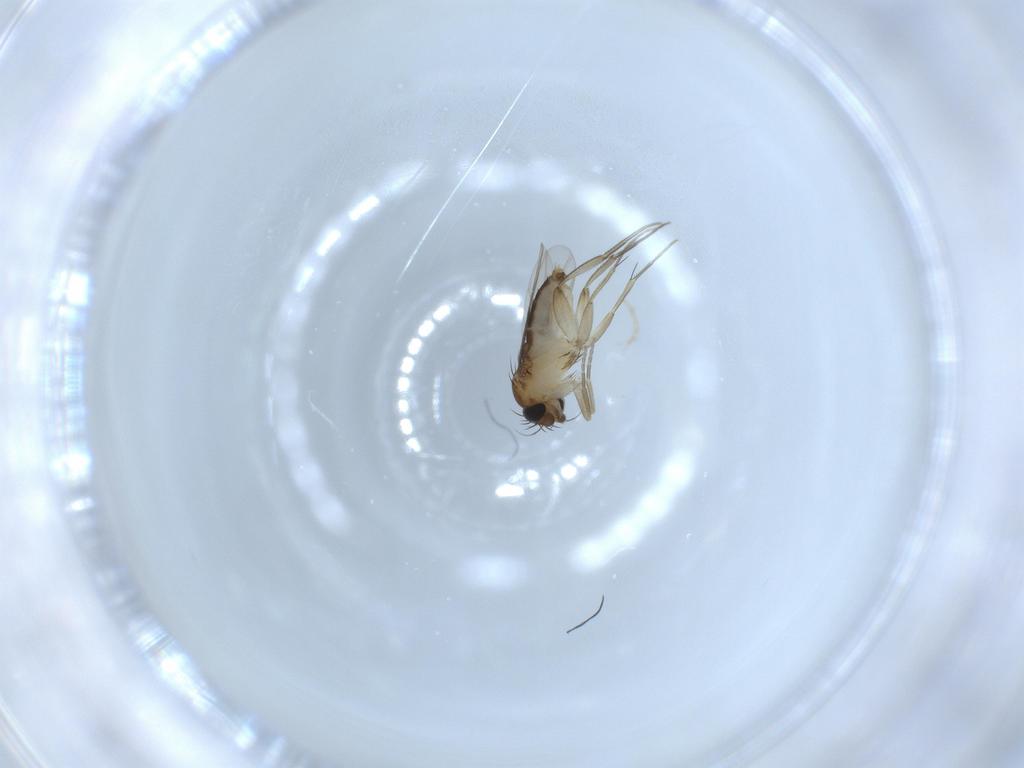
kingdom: Animalia
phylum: Arthropoda
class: Insecta
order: Diptera
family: Phoridae
